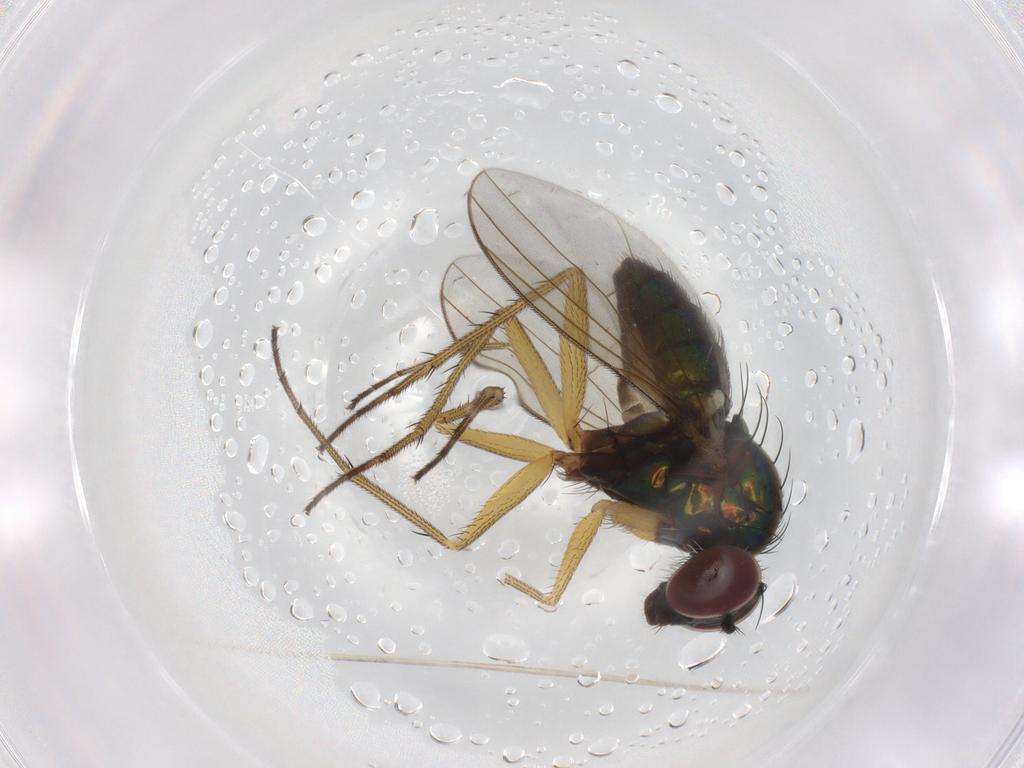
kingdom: Animalia
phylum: Arthropoda
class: Insecta
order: Diptera
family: Dolichopodidae
